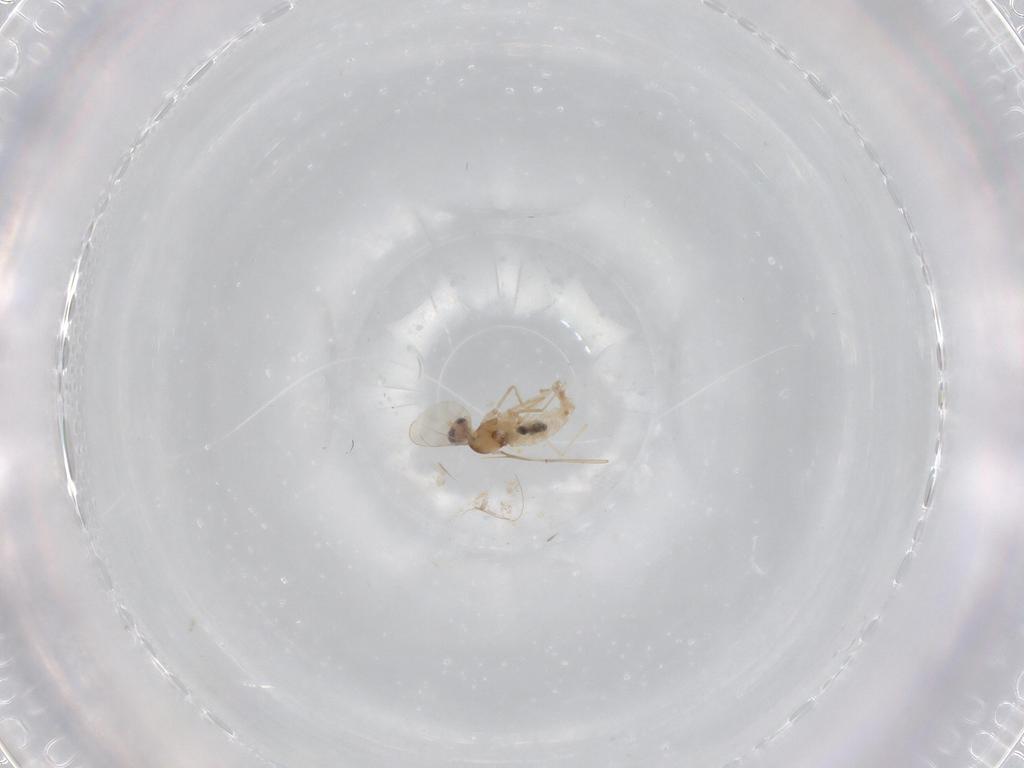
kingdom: Animalia
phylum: Arthropoda
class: Insecta
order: Diptera
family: Cecidomyiidae
